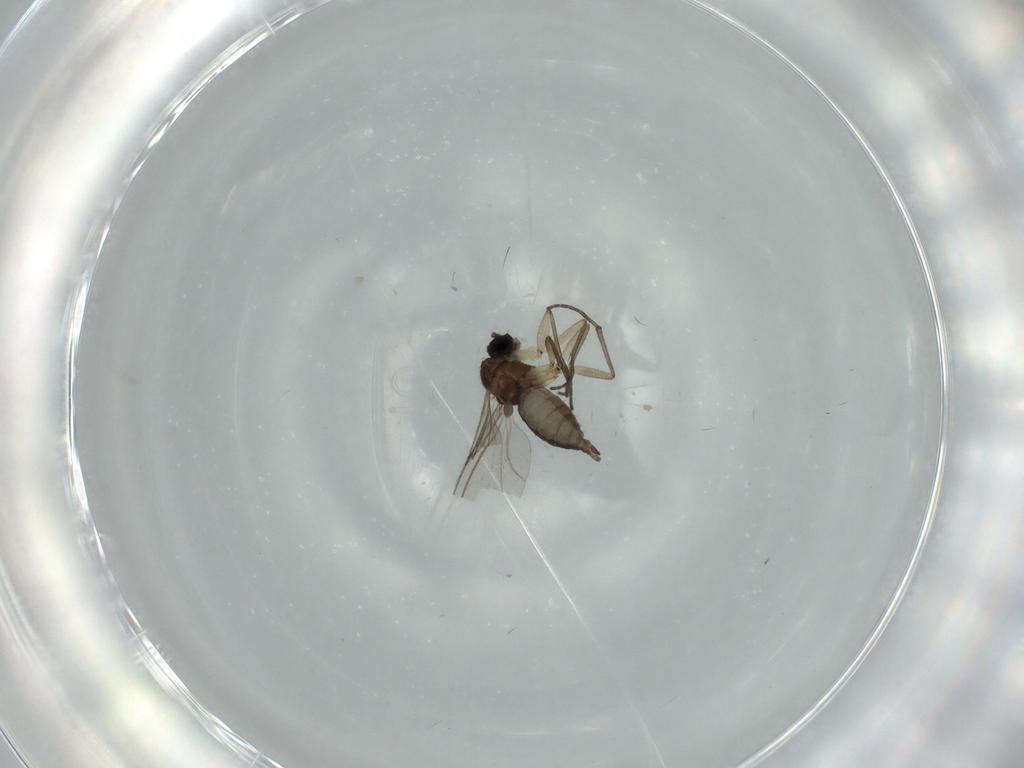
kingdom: Animalia
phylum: Arthropoda
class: Insecta
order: Diptera
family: Sciaridae
